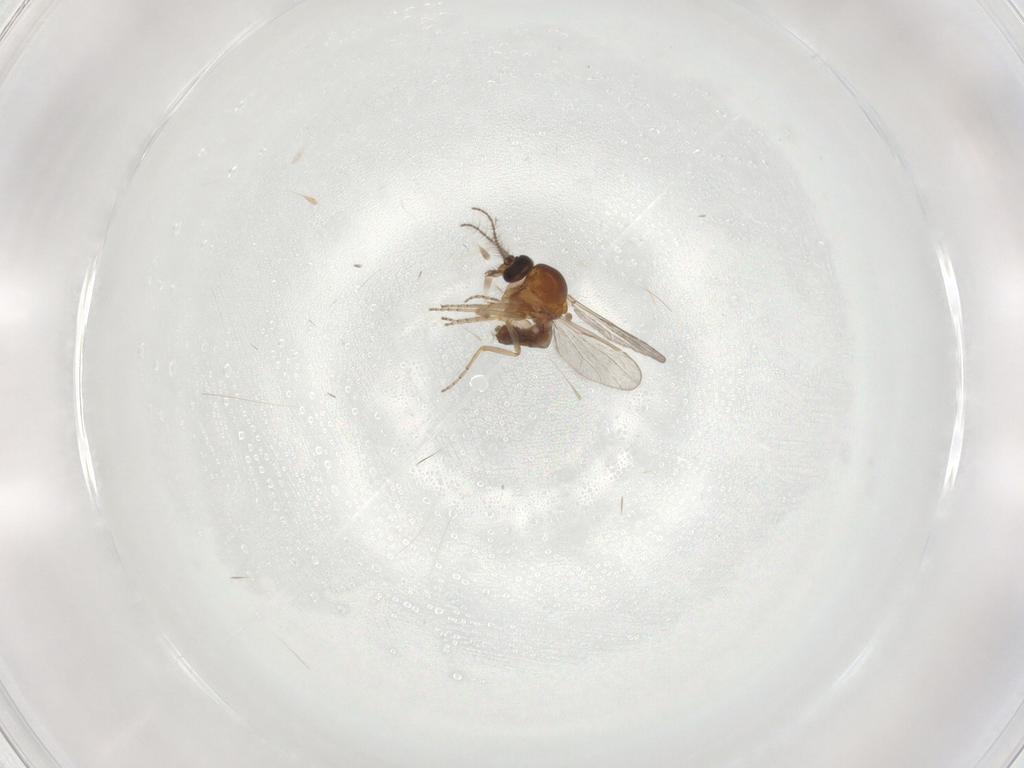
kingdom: Animalia
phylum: Arthropoda
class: Insecta
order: Diptera
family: Ceratopogonidae
